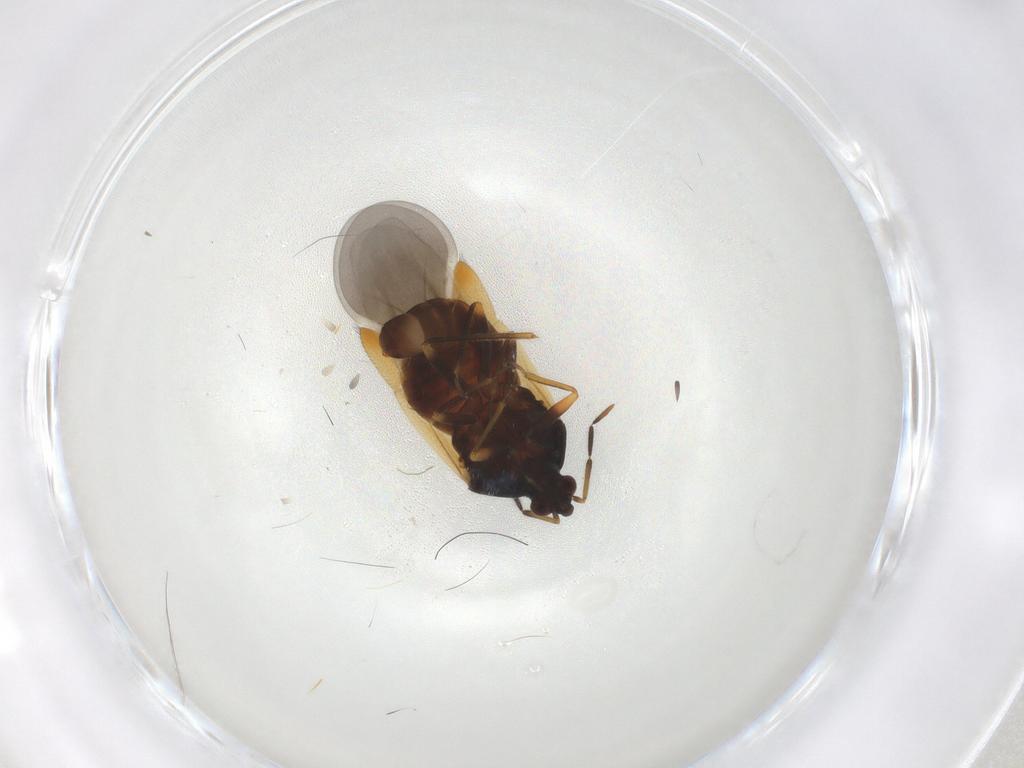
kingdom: Animalia
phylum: Arthropoda
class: Insecta
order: Hemiptera
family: Anthocoridae
